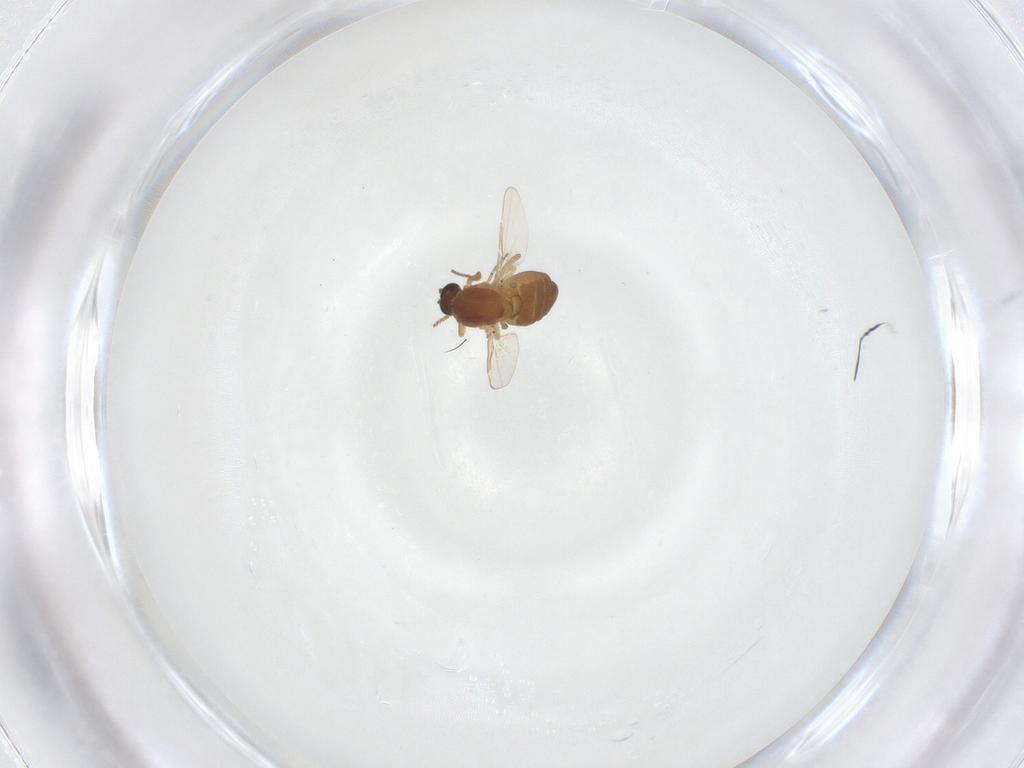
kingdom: Animalia
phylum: Arthropoda
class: Insecta
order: Diptera
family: Ceratopogonidae
